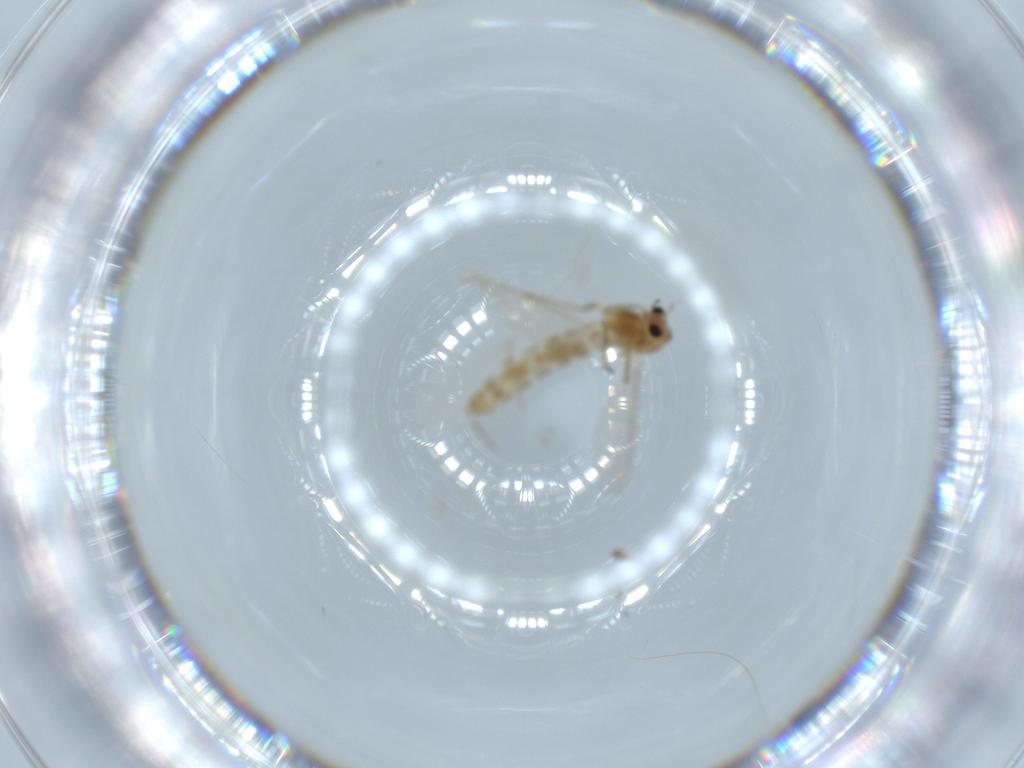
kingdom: Animalia
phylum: Arthropoda
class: Insecta
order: Diptera
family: Chironomidae
